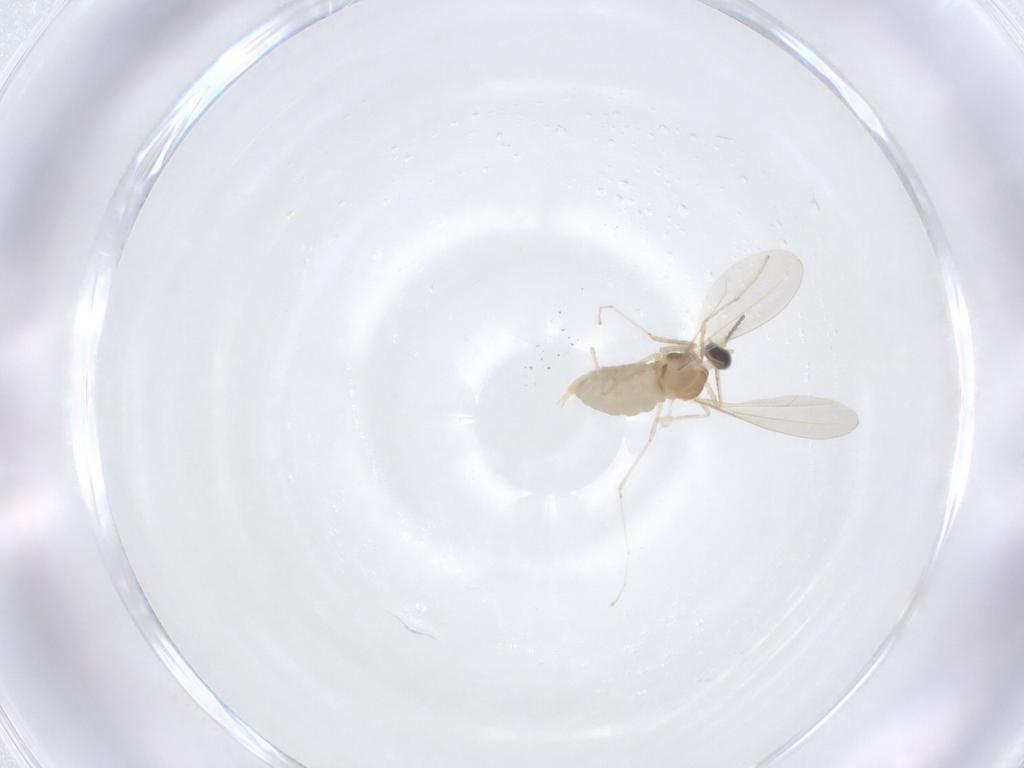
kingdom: Animalia
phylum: Arthropoda
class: Insecta
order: Diptera
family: Cecidomyiidae
